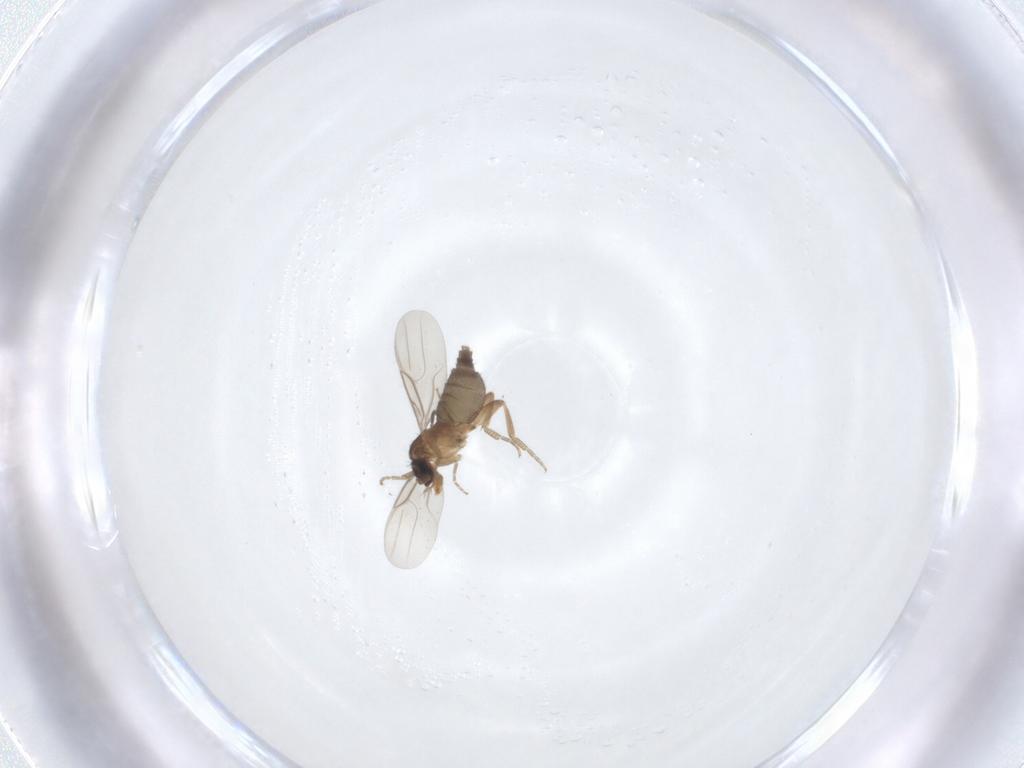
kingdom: Animalia
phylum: Arthropoda
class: Insecta
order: Diptera
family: Phoridae
